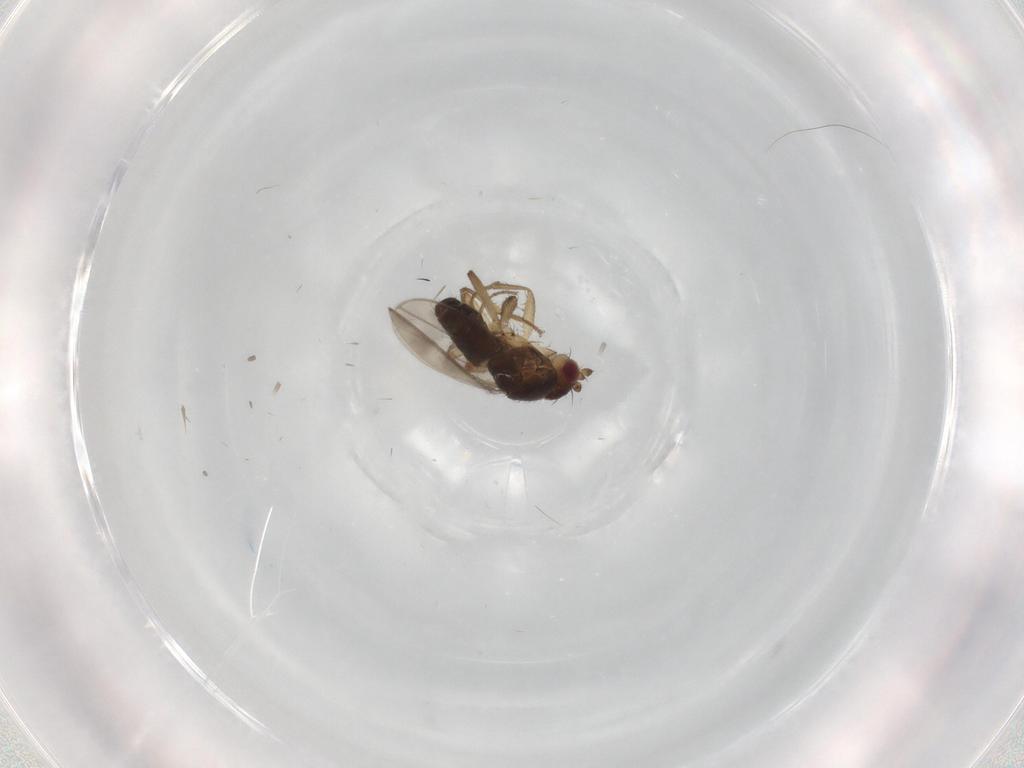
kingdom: Animalia
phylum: Arthropoda
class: Insecta
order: Diptera
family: Sphaeroceridae
